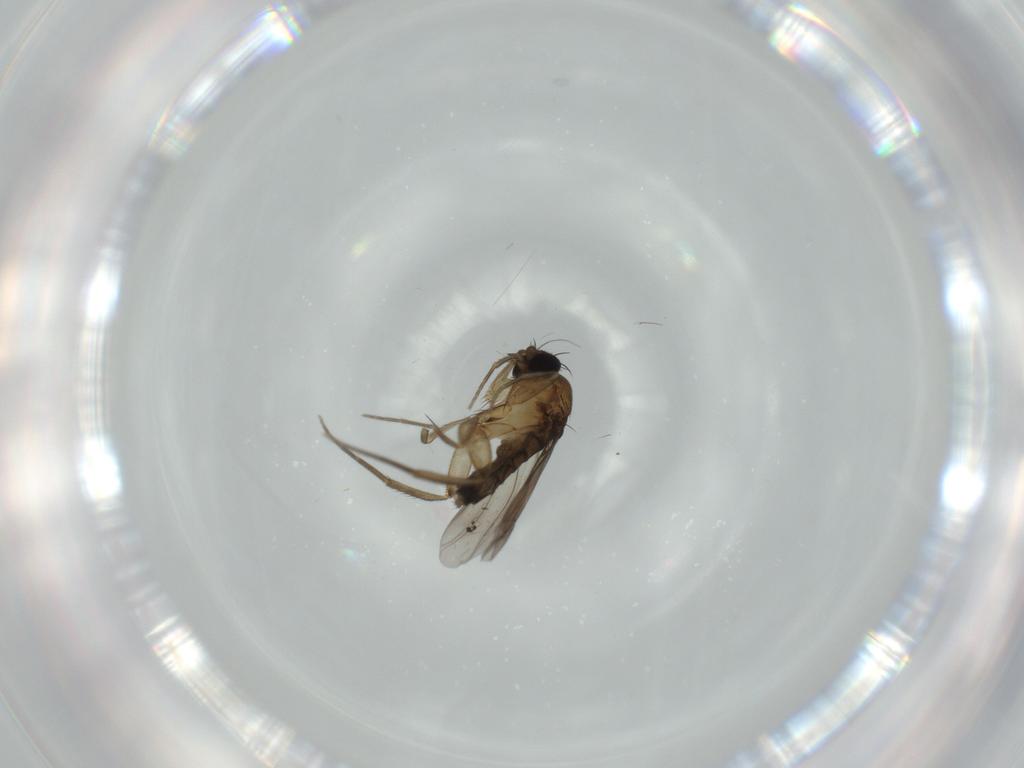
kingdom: Animalia
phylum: Arthropoda
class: Insecta
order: Diptera
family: Phoridae
